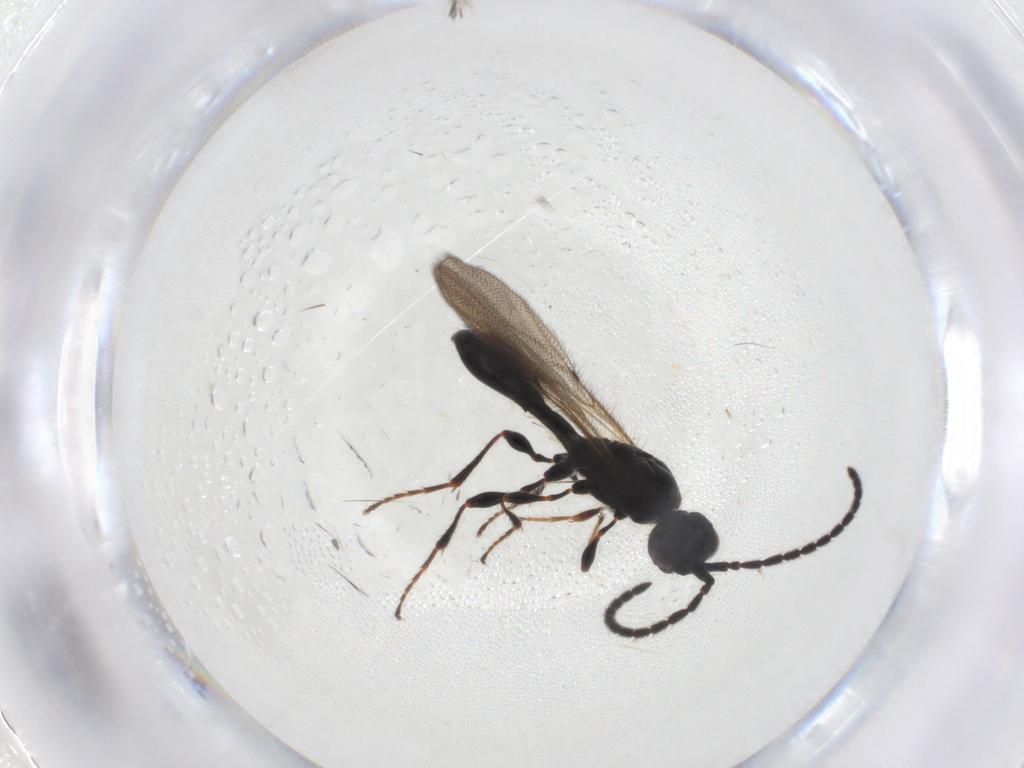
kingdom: Animalia
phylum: Arthropoda
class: Insecta
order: Hymenoptera
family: Diapriidae
